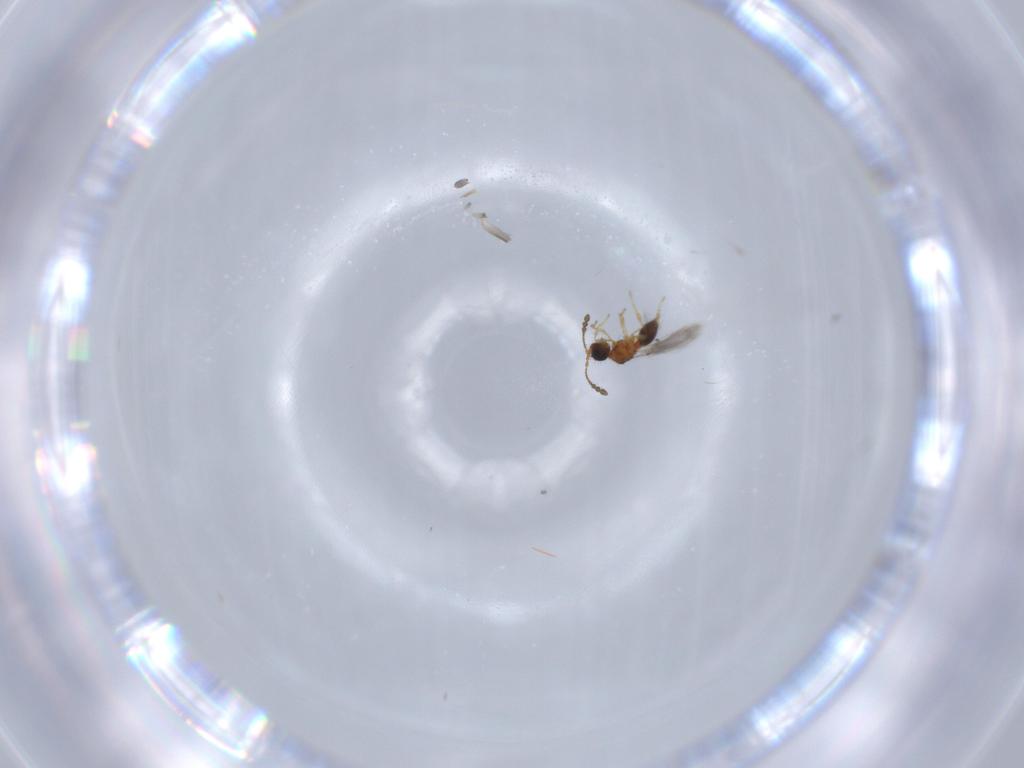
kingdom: Animalia
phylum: Arthropoda
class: Insecta
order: Hymenoptera
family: Diapriidae
